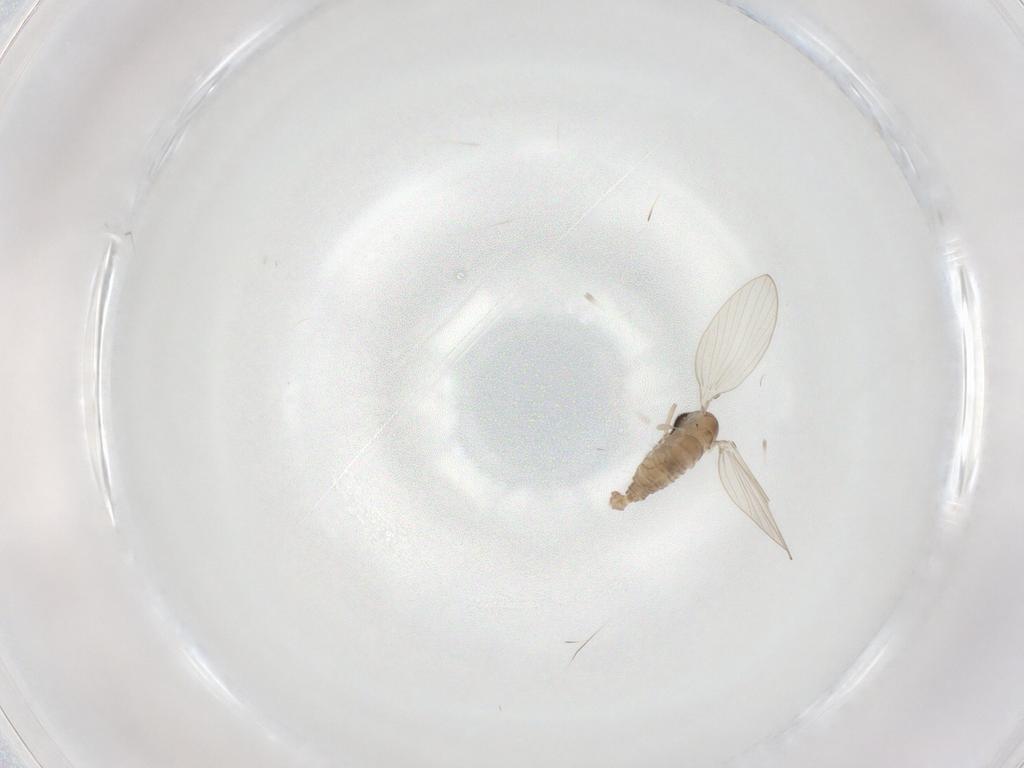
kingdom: Animalia
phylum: Arthropoda
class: Insecta
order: Diptera
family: Psychodidae
